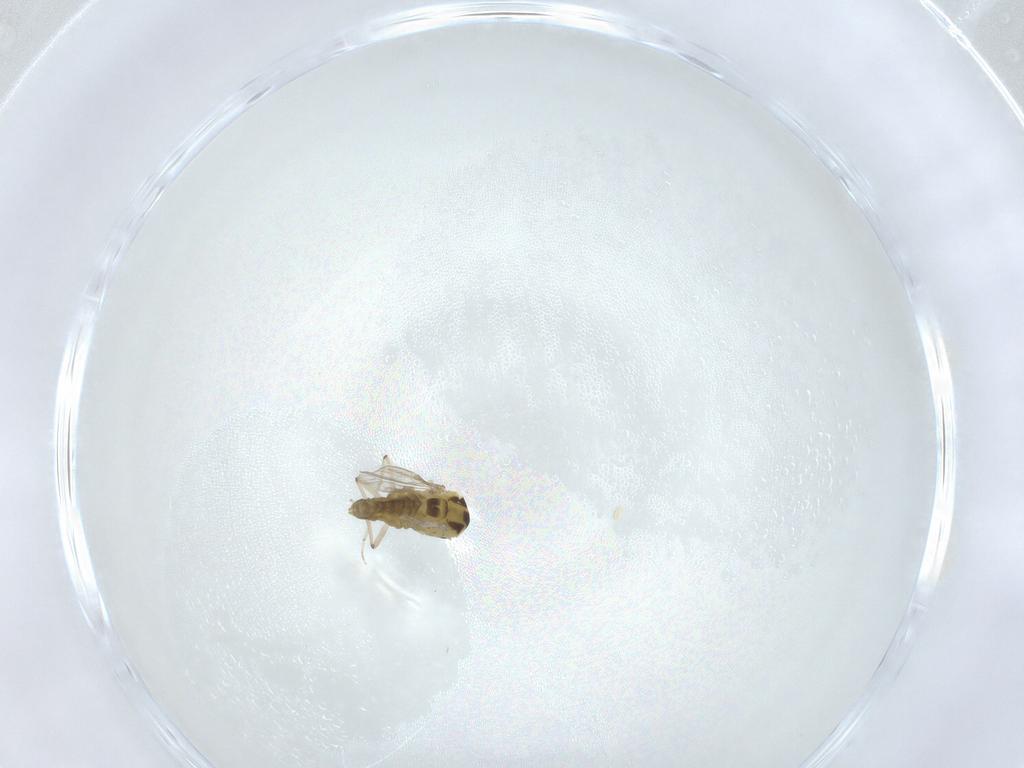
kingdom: Animalia
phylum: Arthropoda
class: Insecta
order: Diptera
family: Chironomidae
